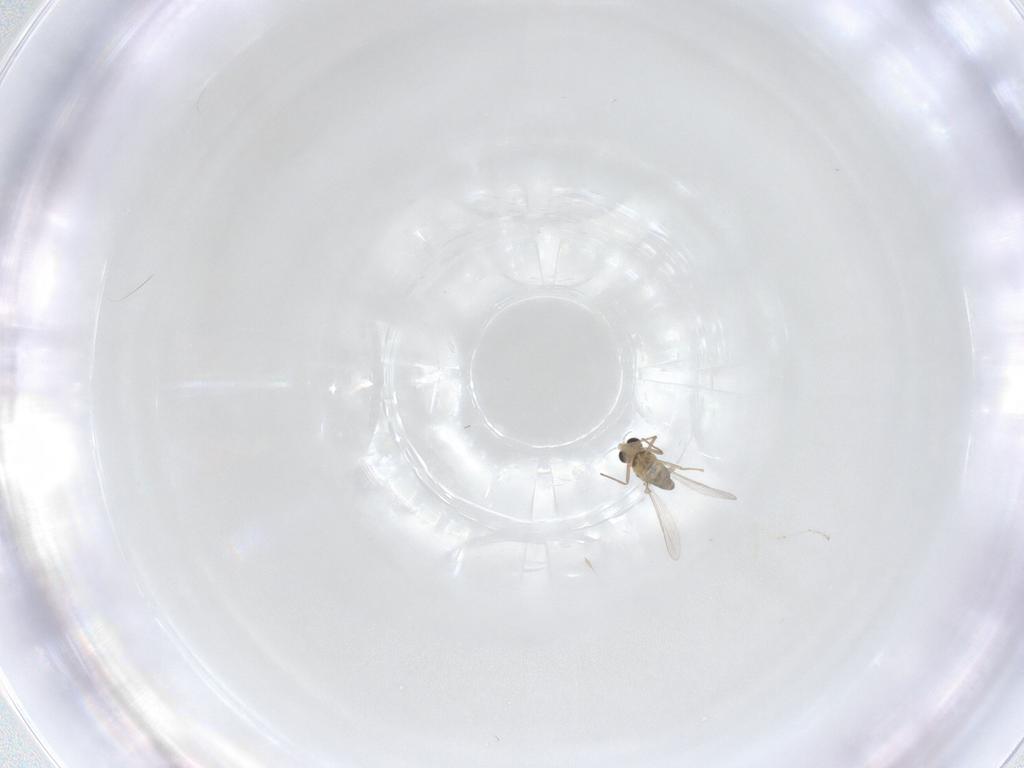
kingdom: Animalia
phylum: Arthropoda
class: Insecta
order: Diptera
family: Chironomidae
